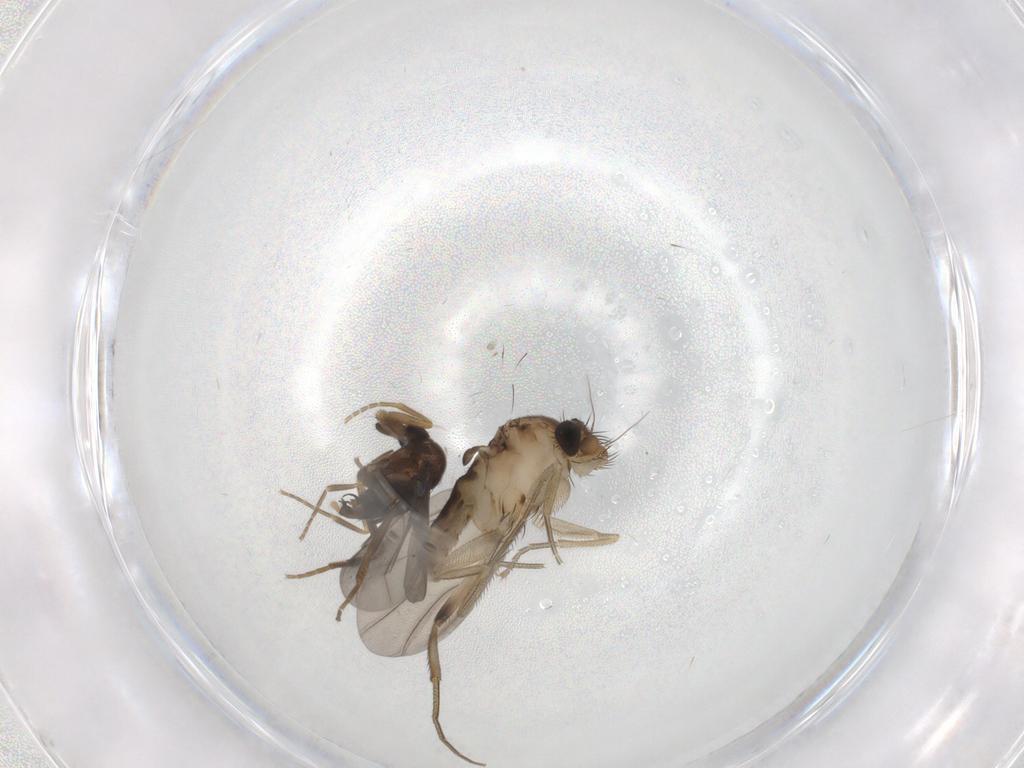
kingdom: Animalia
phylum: Arthropoda
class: Insecta
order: Diptera
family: Phoridae
